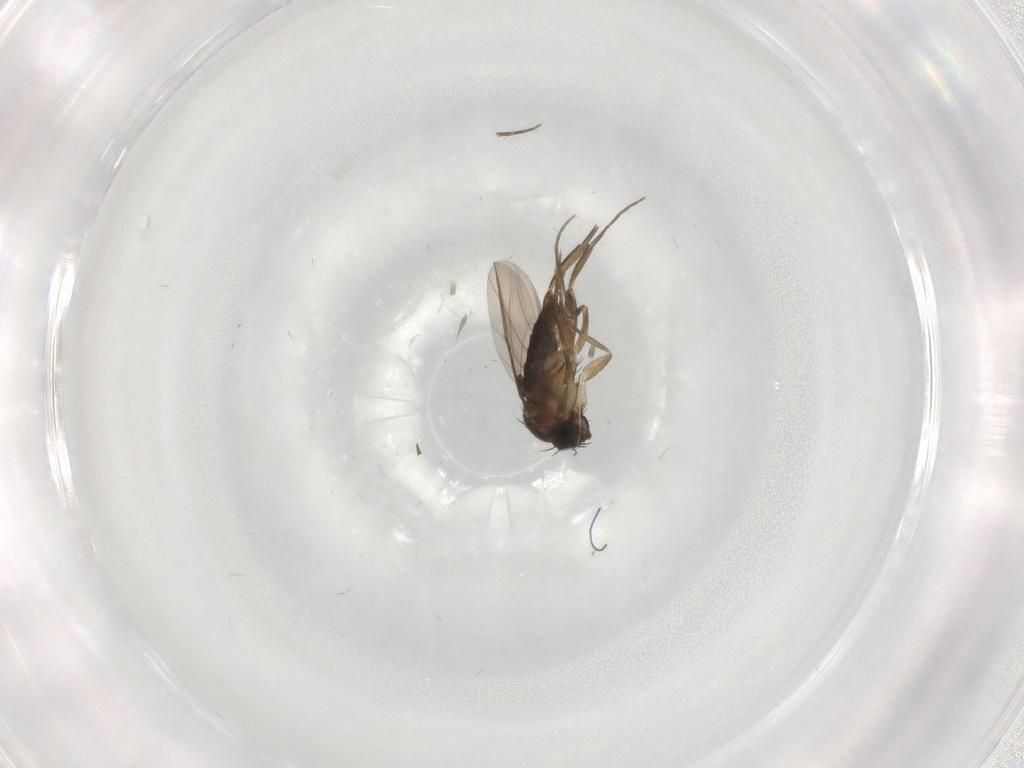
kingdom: Animalia
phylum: Arthropoda
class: Insecta
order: Diptera
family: Phoridae
